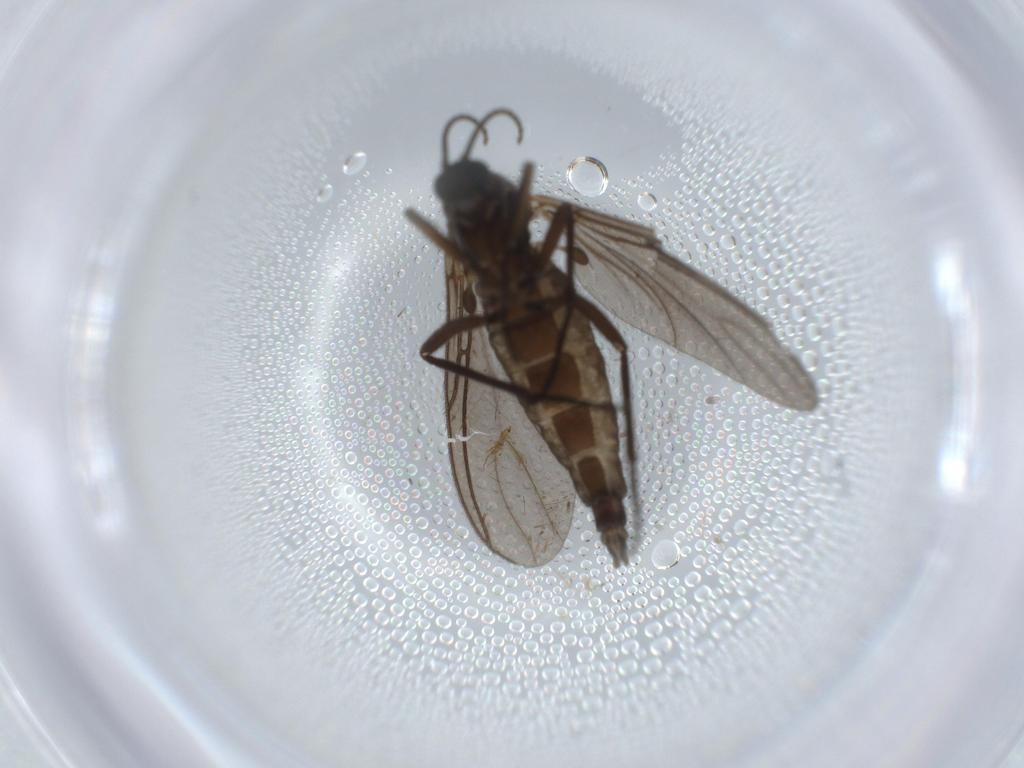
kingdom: Animalia
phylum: Arthropoda
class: Insecta
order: Diptera
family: Sciaridae
